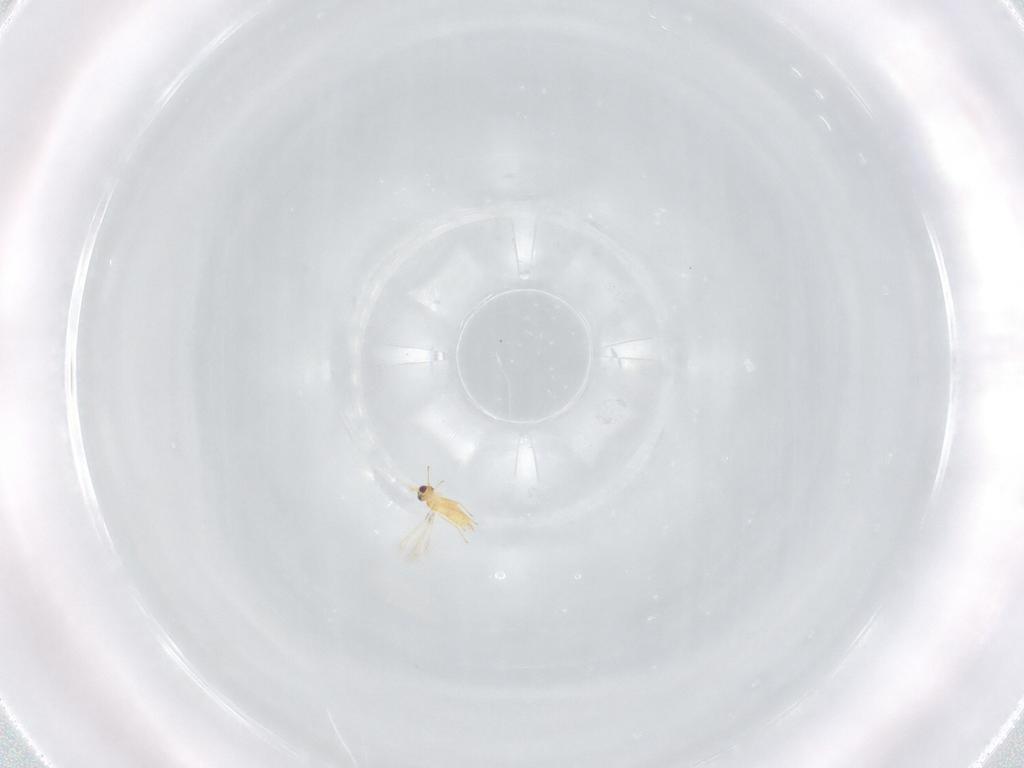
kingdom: Animalia
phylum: Arthropoda
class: Insecta
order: Hymenoptera
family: Mymaridae
